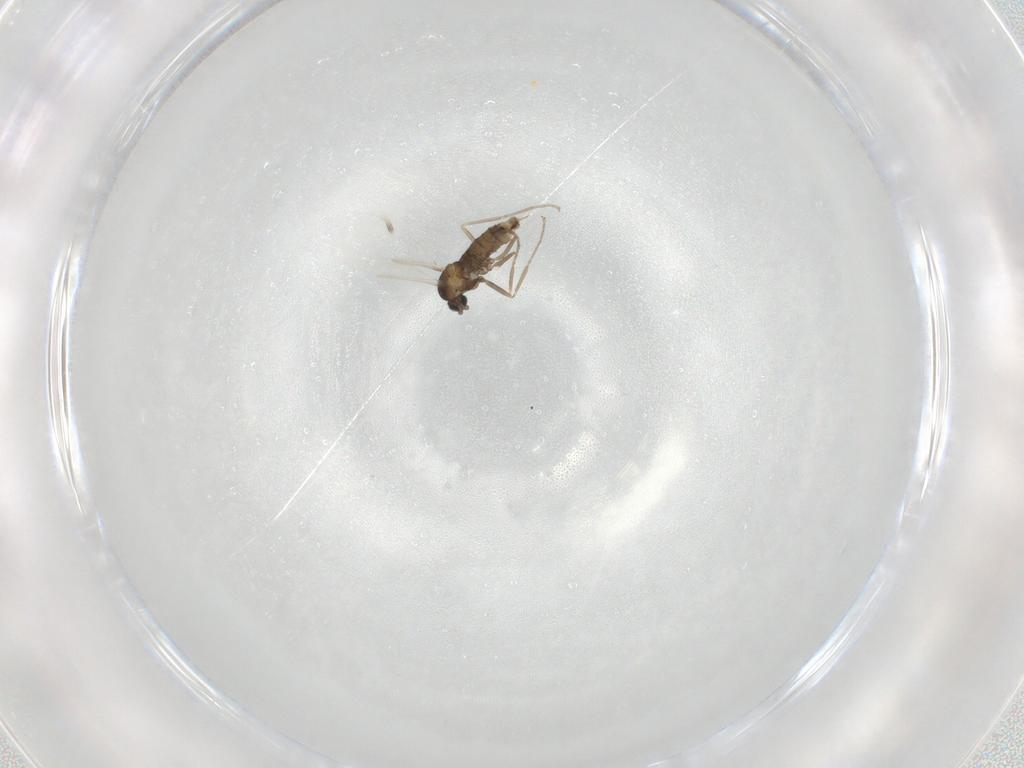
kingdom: Animalia
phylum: Arthropoda
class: Insecta
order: Diptera
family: Cecidomyiidae
